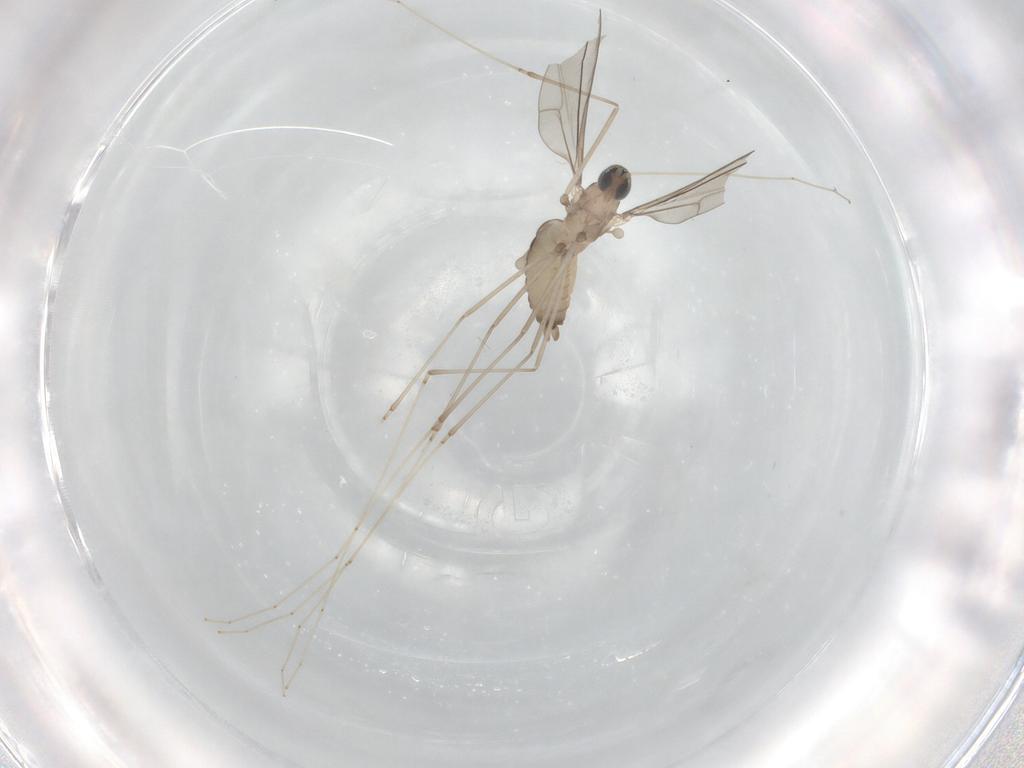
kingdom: Animalia
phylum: Arthropoda
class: Insecta
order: Diptera
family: Cecidomyiidae
